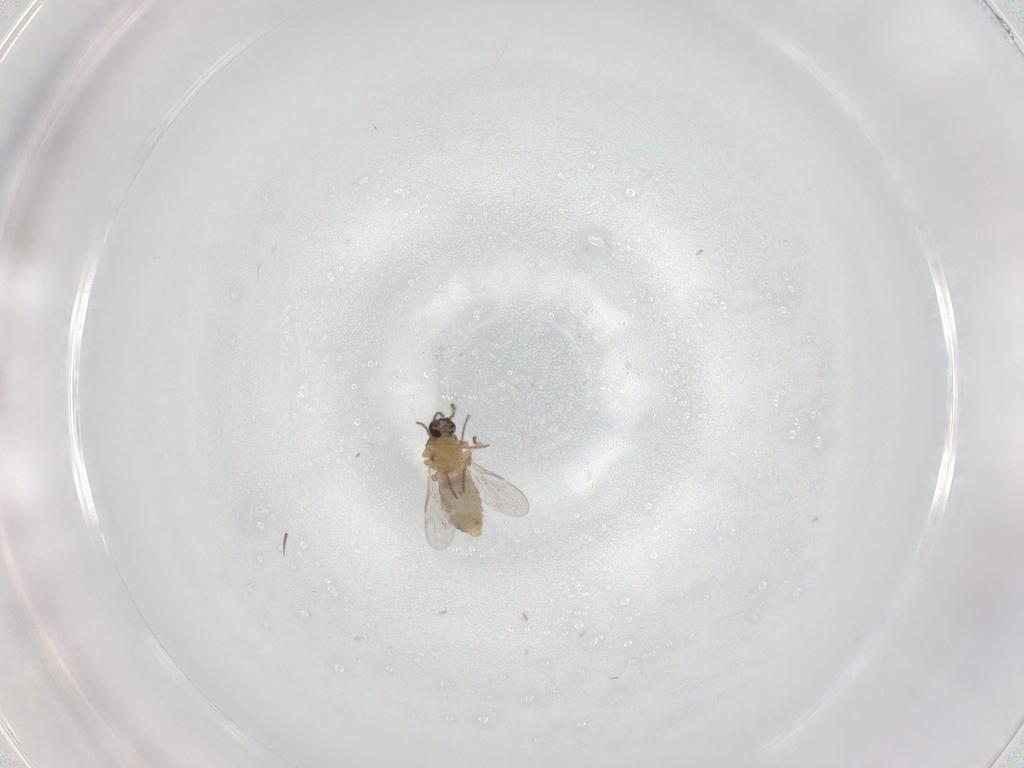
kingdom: Animalia
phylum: Arthropoda
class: Insecta
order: Diptera
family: Ceratopogonidae
